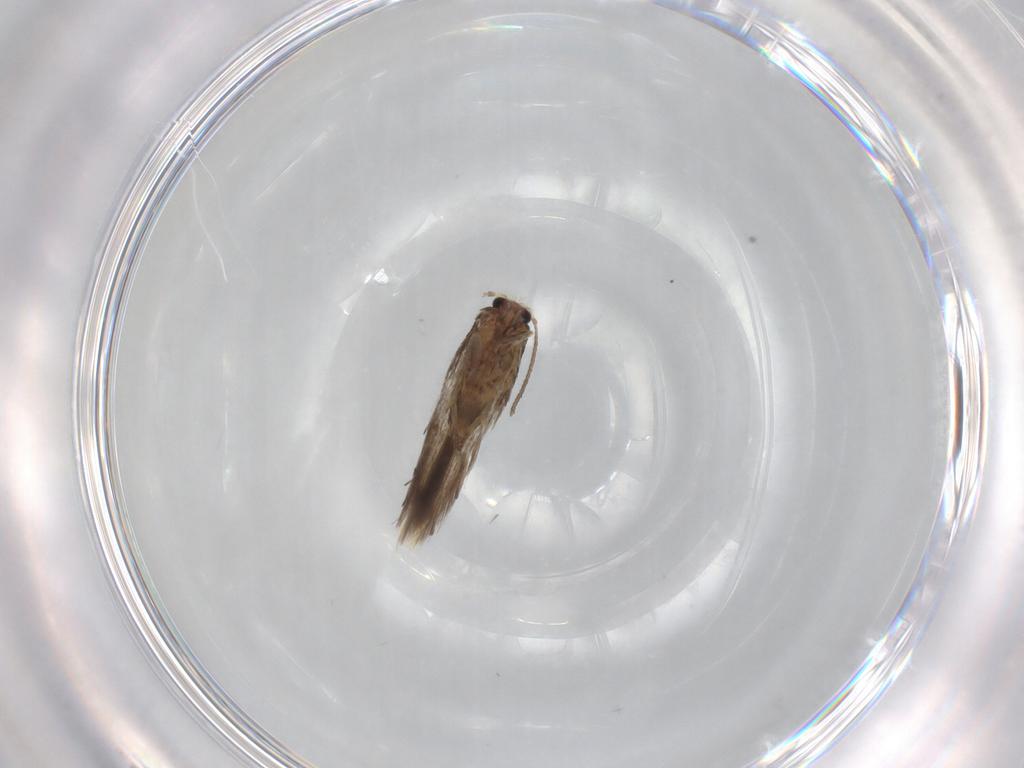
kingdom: Animalia
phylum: Arthropoda
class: Insecta
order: Lepidoptera
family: Nepticulidae
